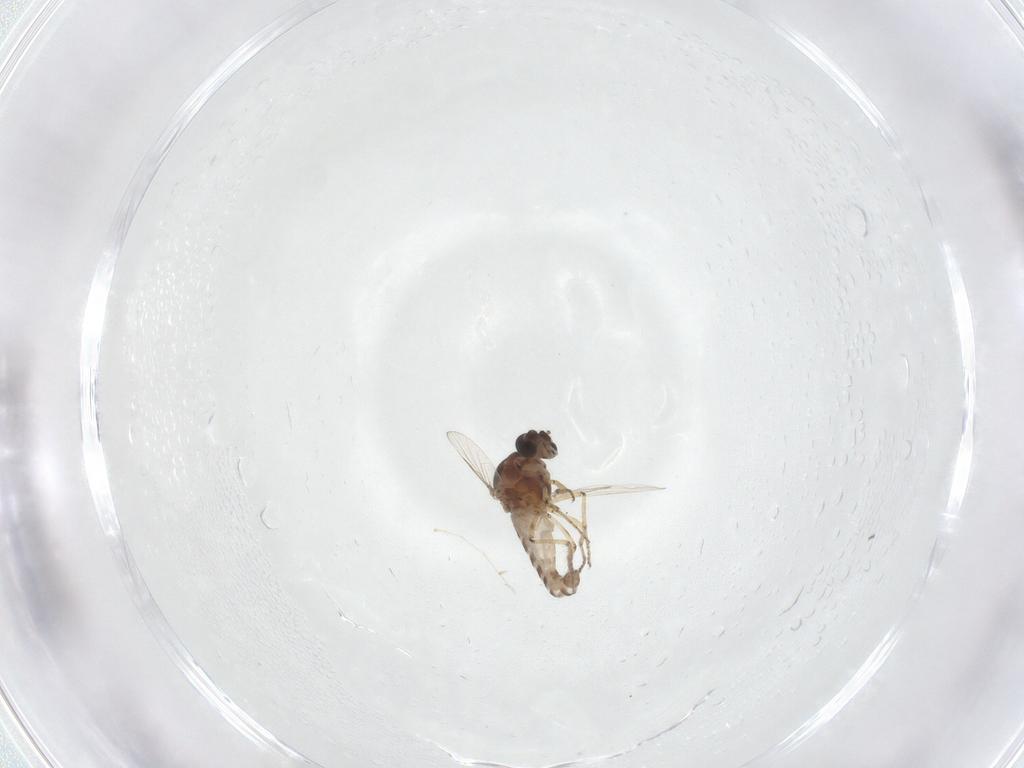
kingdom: Animalia
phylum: Arthropoda
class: Insecta
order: Diptera
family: Ceratopogonidae
